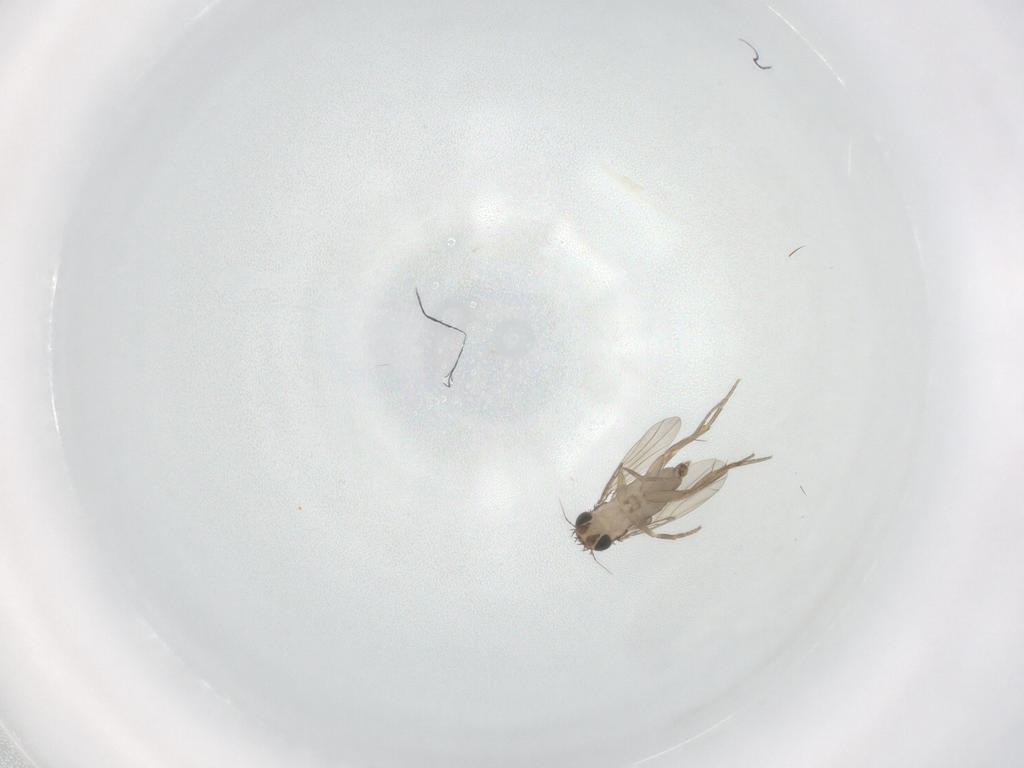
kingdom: Animalia
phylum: Arthropoda
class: Insecta
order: Diptera
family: Phoridae
